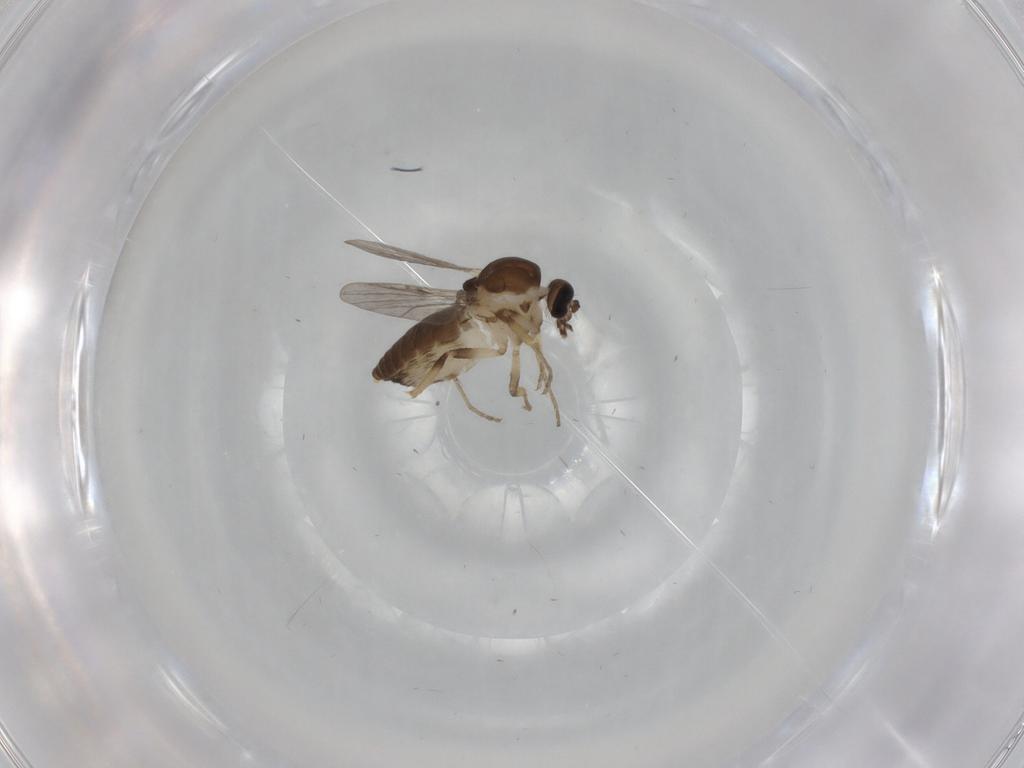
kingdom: Animalia
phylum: Arthropoda
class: Insecta
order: Diptera
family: Ceratopogonidae
